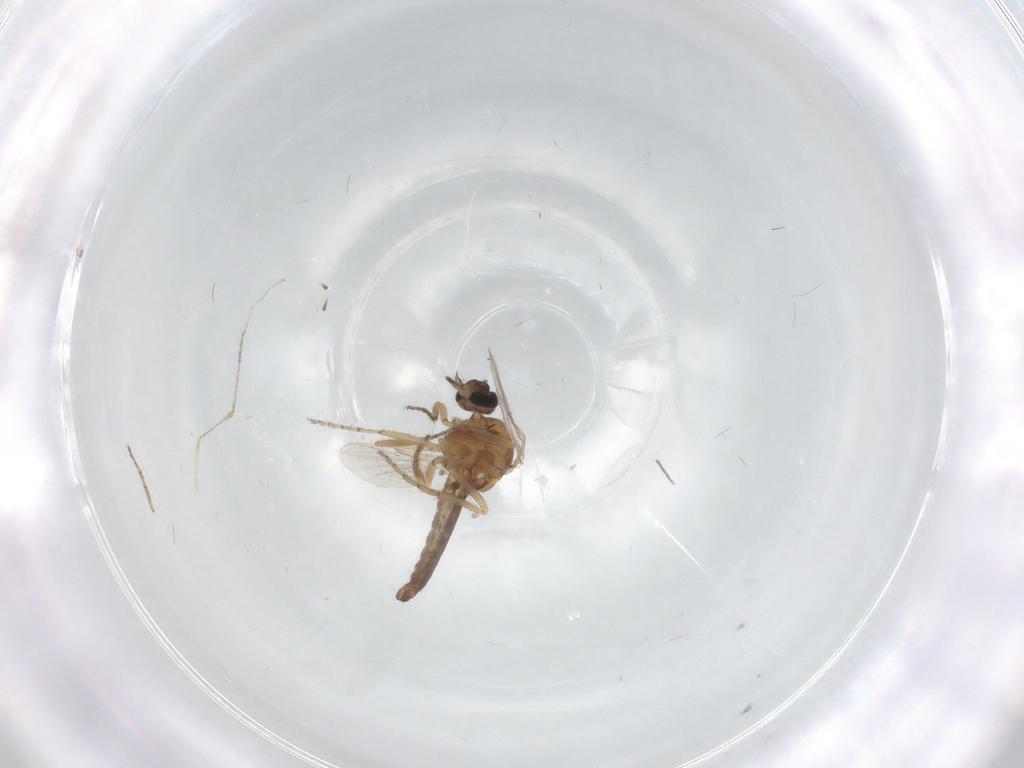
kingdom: Animalia
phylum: Arthropoda
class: Insecta
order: Diptera
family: Ceratopogonidae
